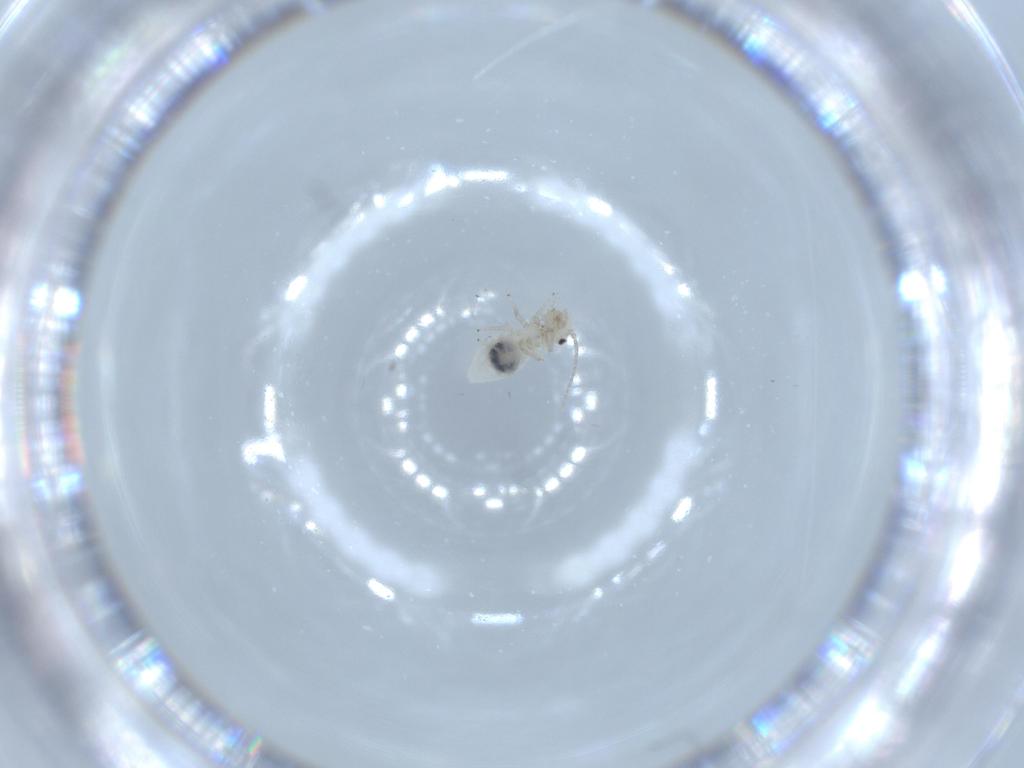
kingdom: Animalia
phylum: Arthropoda
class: Insecta
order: Psocodea
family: Caeciliusidae
